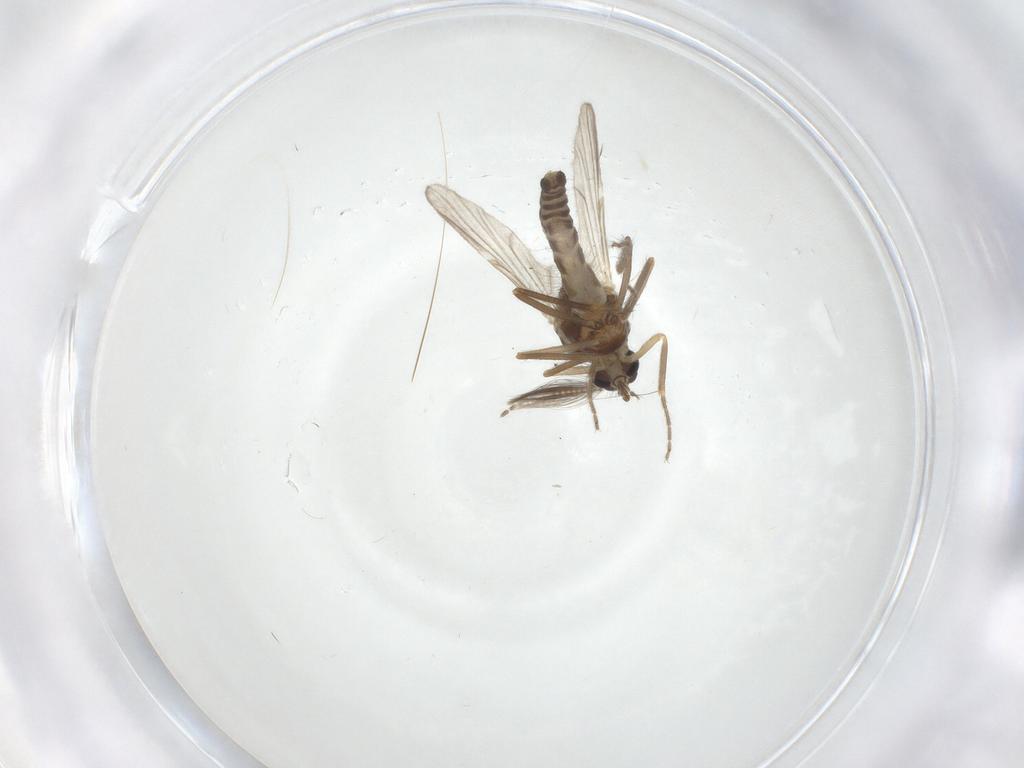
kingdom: Animalia
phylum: Arthropoda
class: Insecta
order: Diptera
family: Ceratopogonidae
